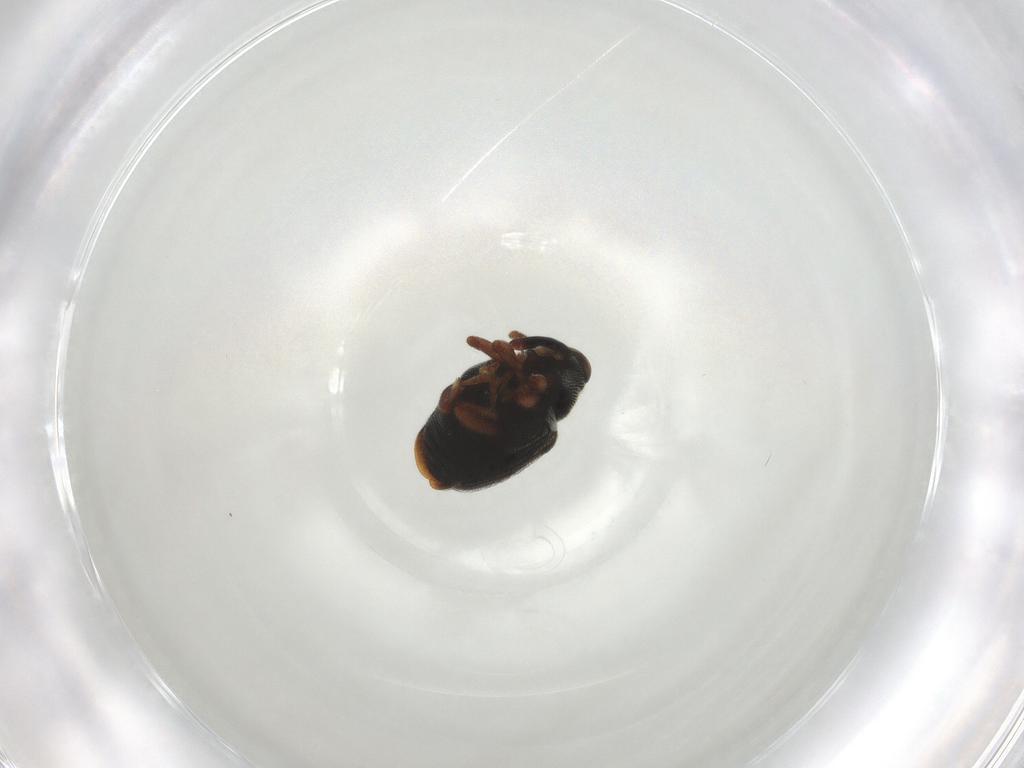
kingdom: Animalia
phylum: Arthropoda
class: Insecta
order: Coleoptera
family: Curculionidae
